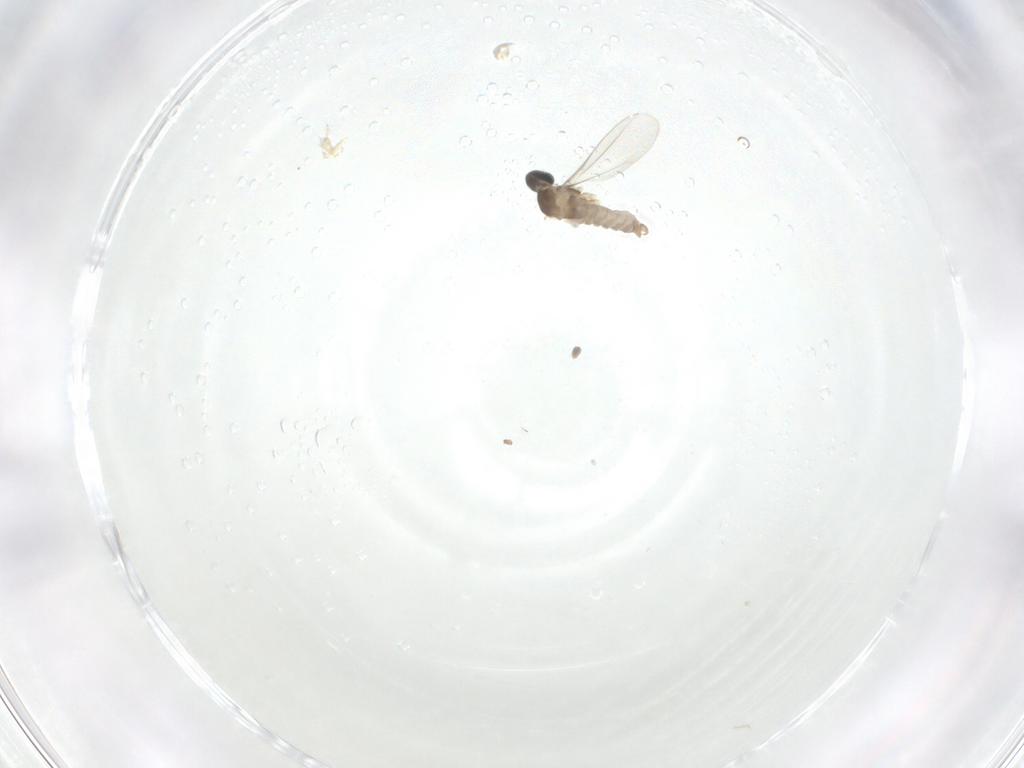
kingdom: Animalia
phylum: Arthropoda
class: Insecta
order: Diptera
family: Cecidomyiidae
